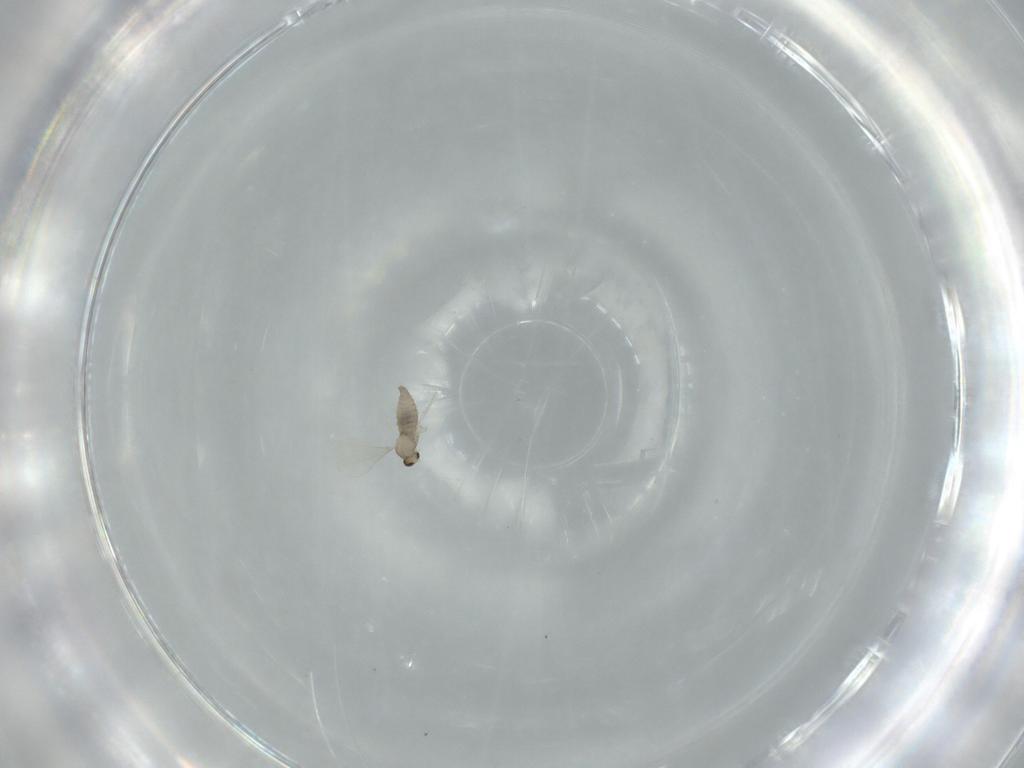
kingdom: Animalia
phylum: Arthropoda
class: Insecta
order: Diptera
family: Cecidomyiidae
